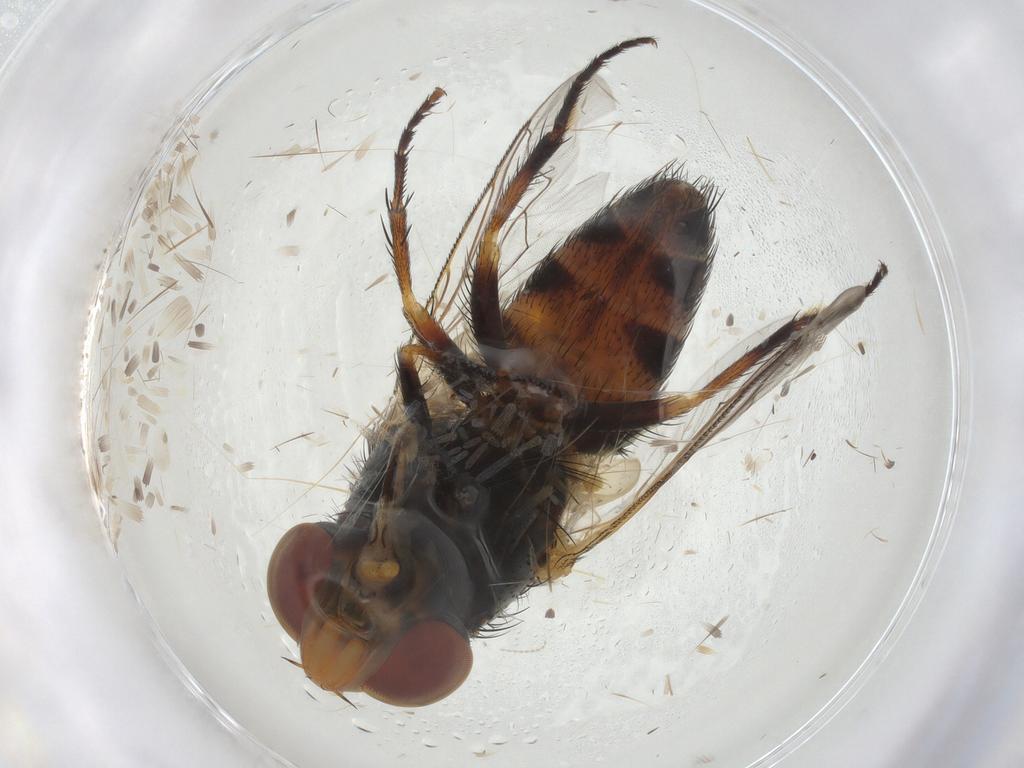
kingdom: Animalia
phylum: Arthropoda
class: Insecta
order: Diptera
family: Sarcophagidae
